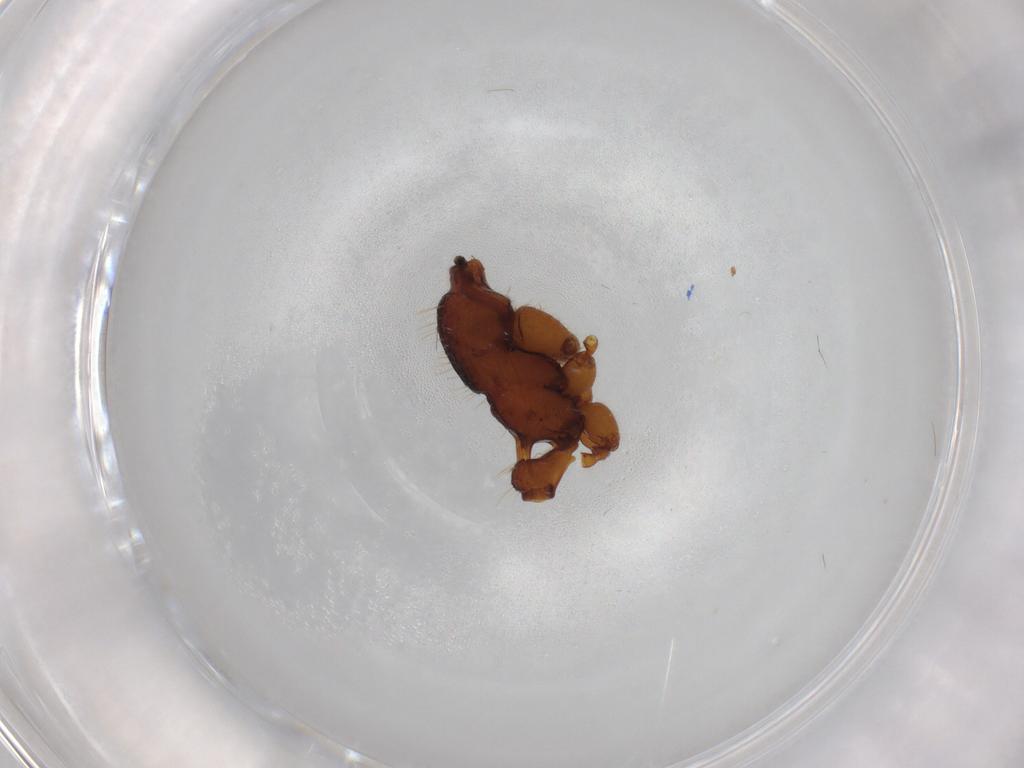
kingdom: Animalia
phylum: Arthropoda
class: Insecta
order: Hymenoptera
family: Formicidae
